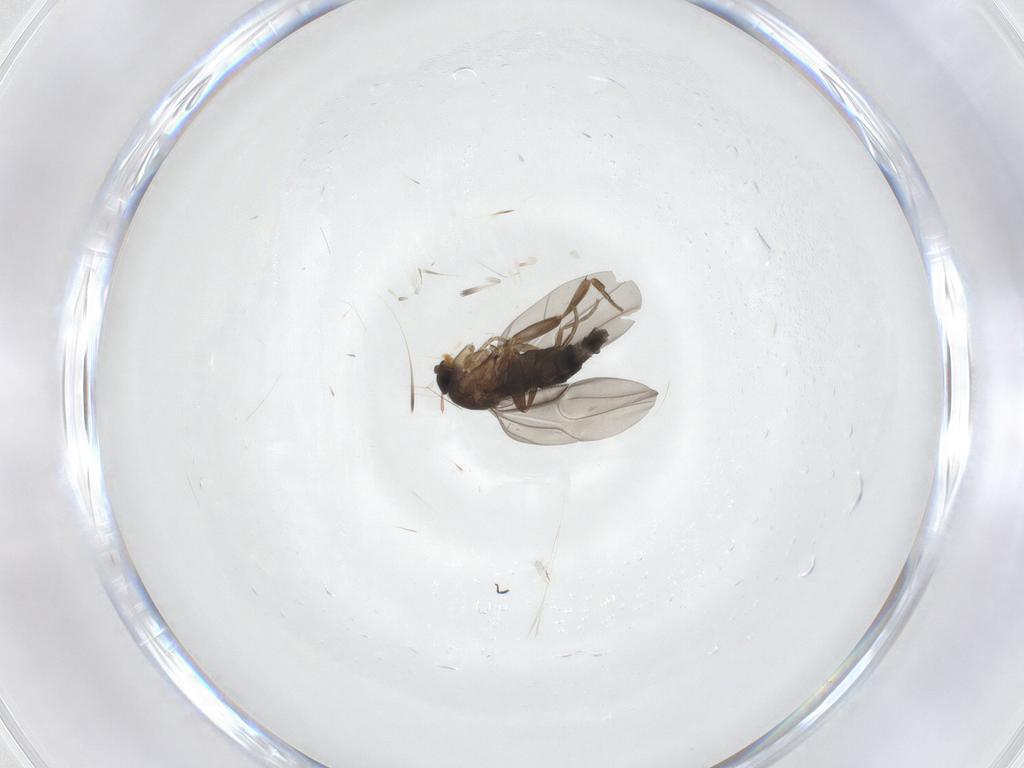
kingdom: Animalia
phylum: Arthropoda
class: Insecta
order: Diptera
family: Phoridae
